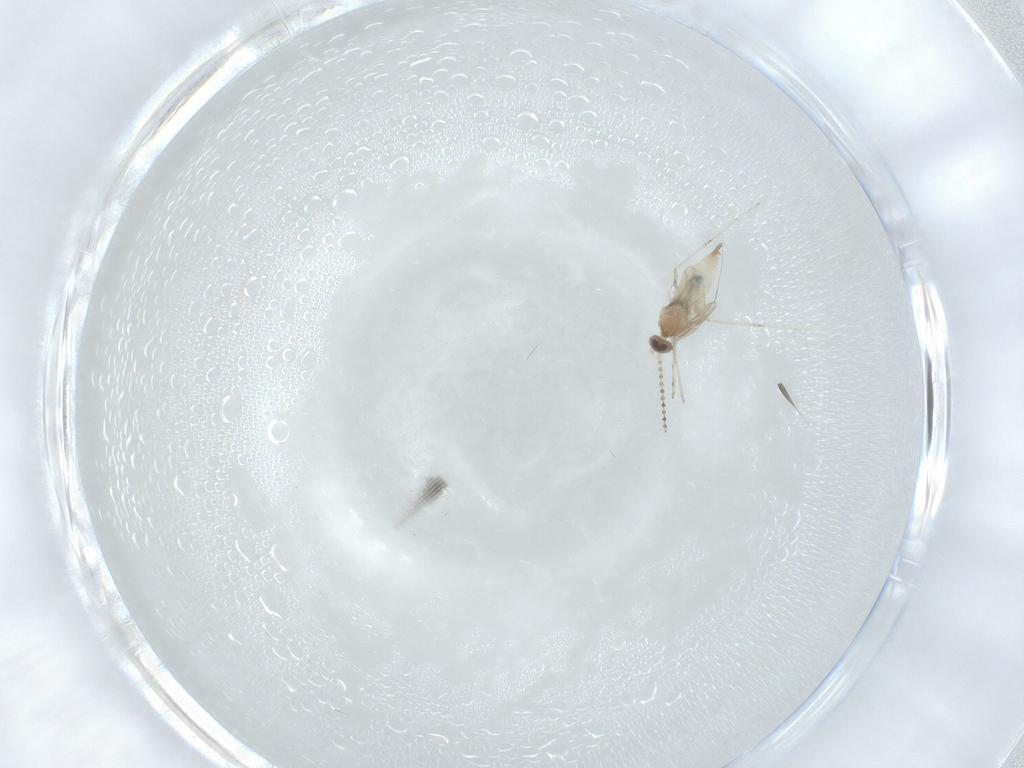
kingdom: Animalia
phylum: Arthropoda
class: Insecta
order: Diptera
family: Cecidomyiidae
